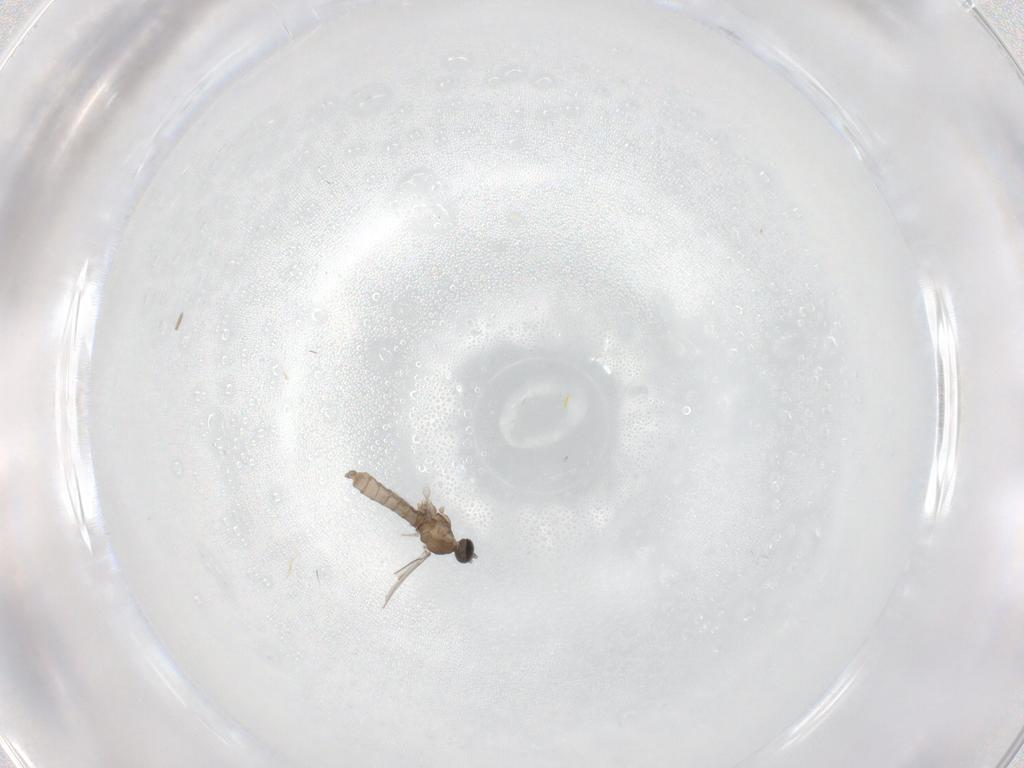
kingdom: Animalia
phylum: Arthropoda
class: Insecta
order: Diptera
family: Cecidomyiidae
